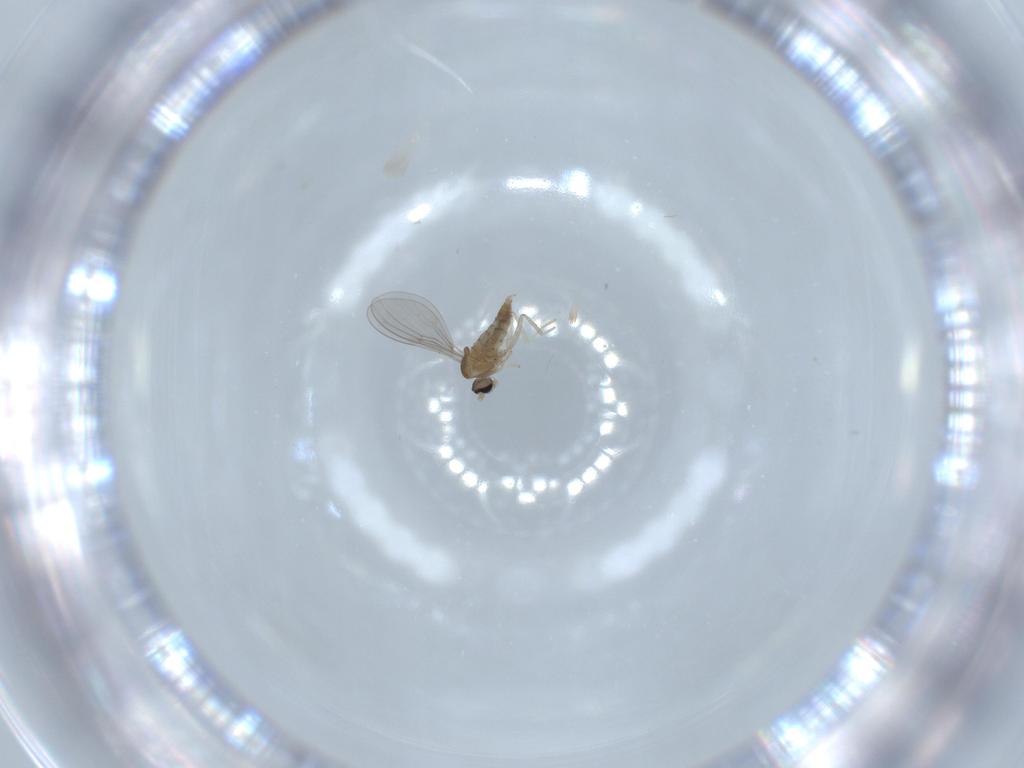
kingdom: Animalia
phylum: Arthropoda
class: Insecta
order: Diptera
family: Cecidomyiidae
